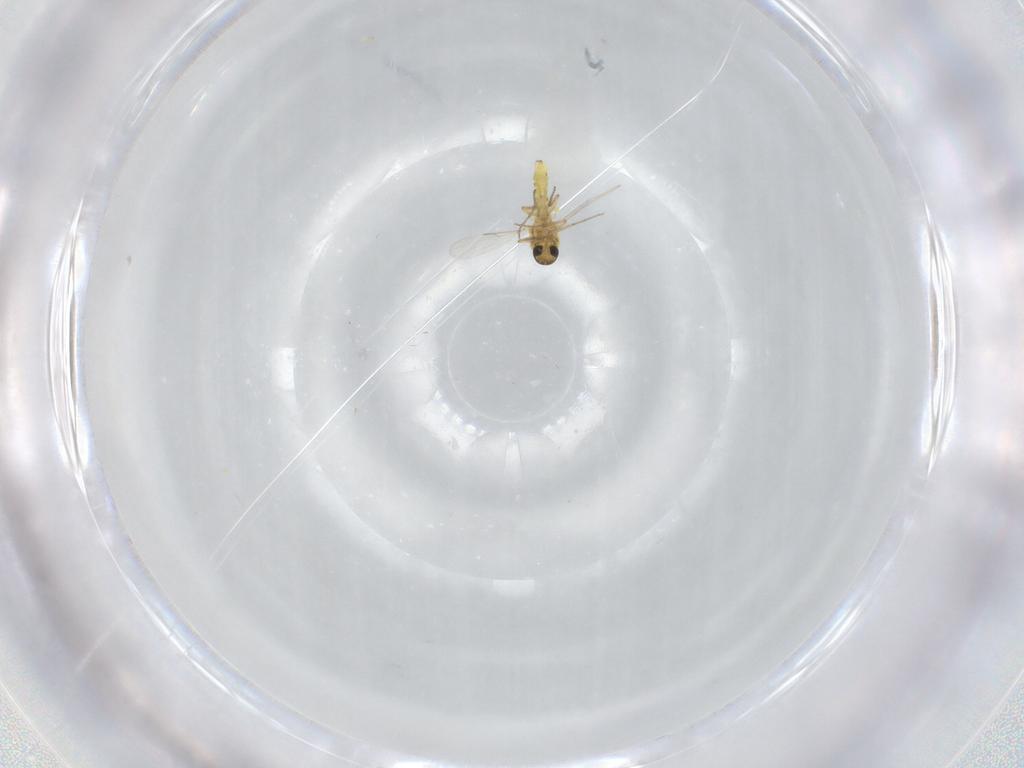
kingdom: Animalia
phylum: Arthropoda
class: Insecta
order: Diptera
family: Ceratopogonidae
